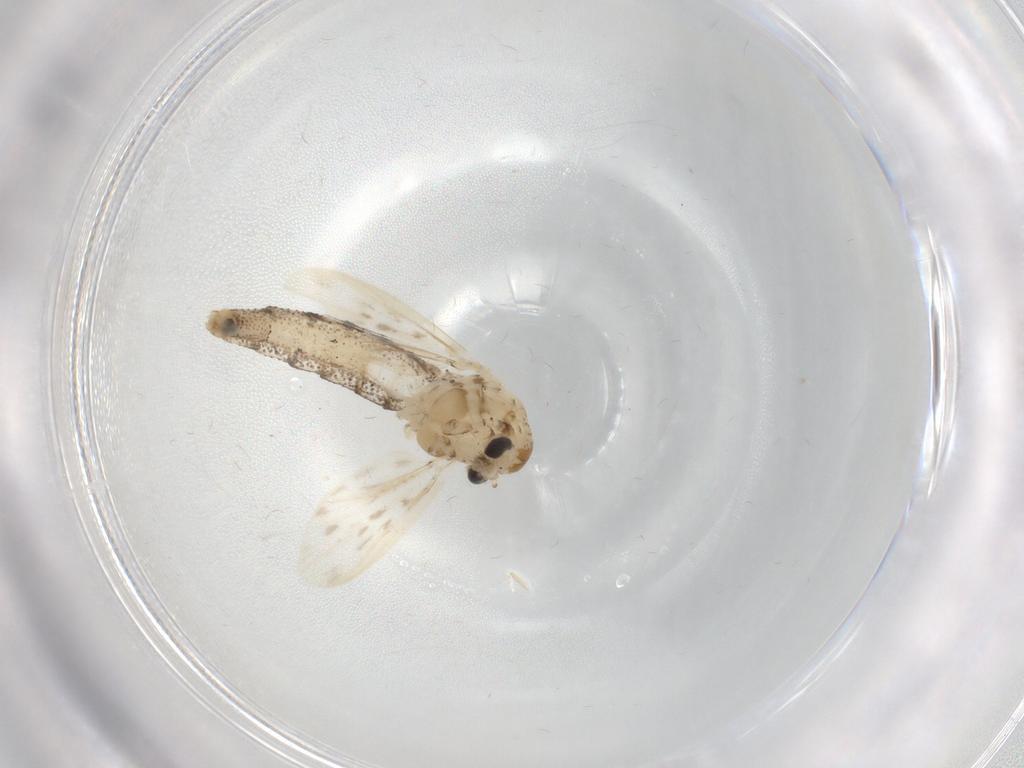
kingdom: Animalia
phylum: Arthropoda
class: Insecta
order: Diptera
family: Chaoboridae
